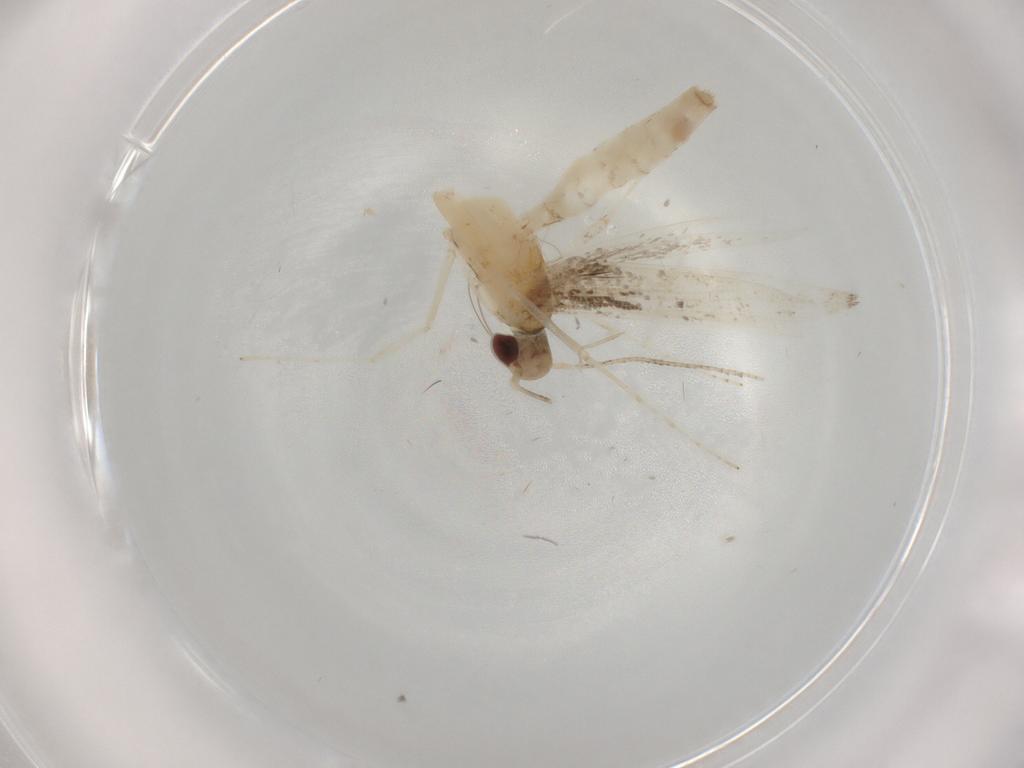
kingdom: Animalia
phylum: Arthropoda
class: Insecta
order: Lepidoptera
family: Gracillariidae
